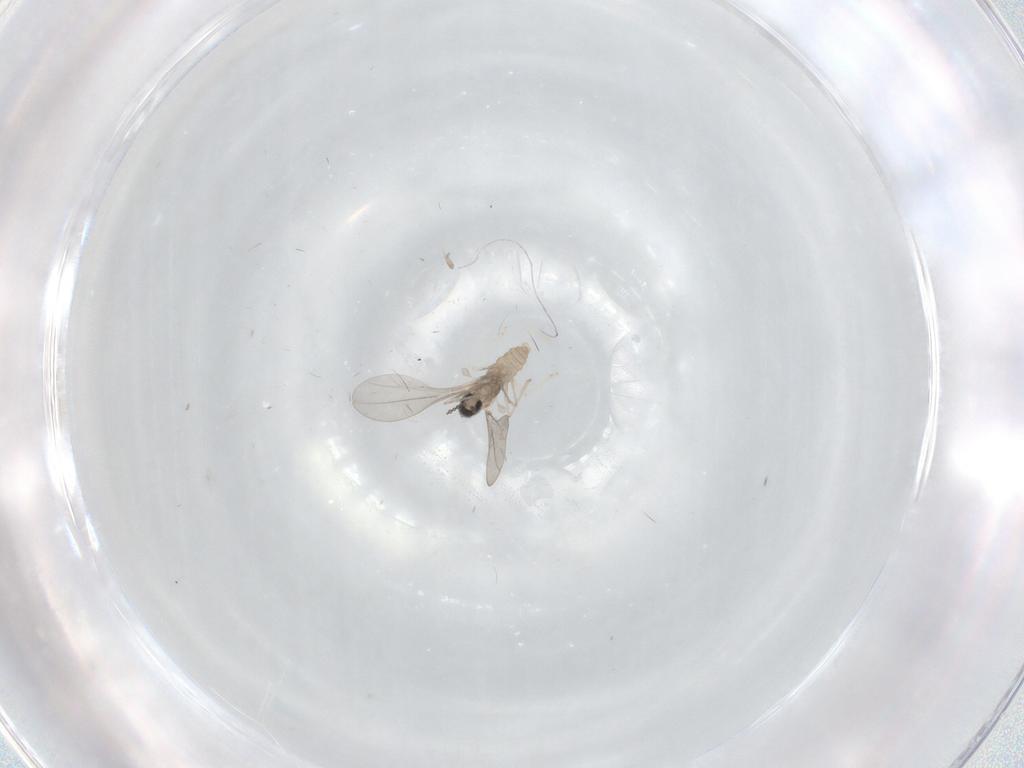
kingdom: Animalia
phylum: Arthropoda
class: Insecta
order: Diptera
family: Cecidomyiidae
